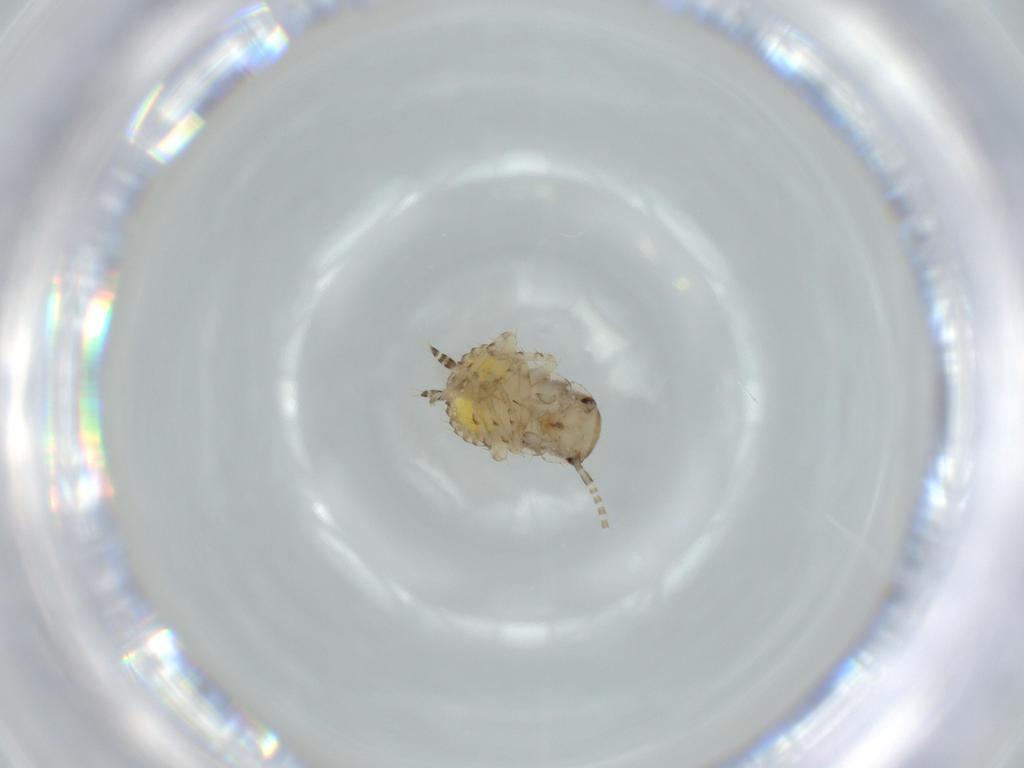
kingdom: Animalia
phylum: Arthropoda
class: Insecta
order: Blattodea
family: Ectobiidae
